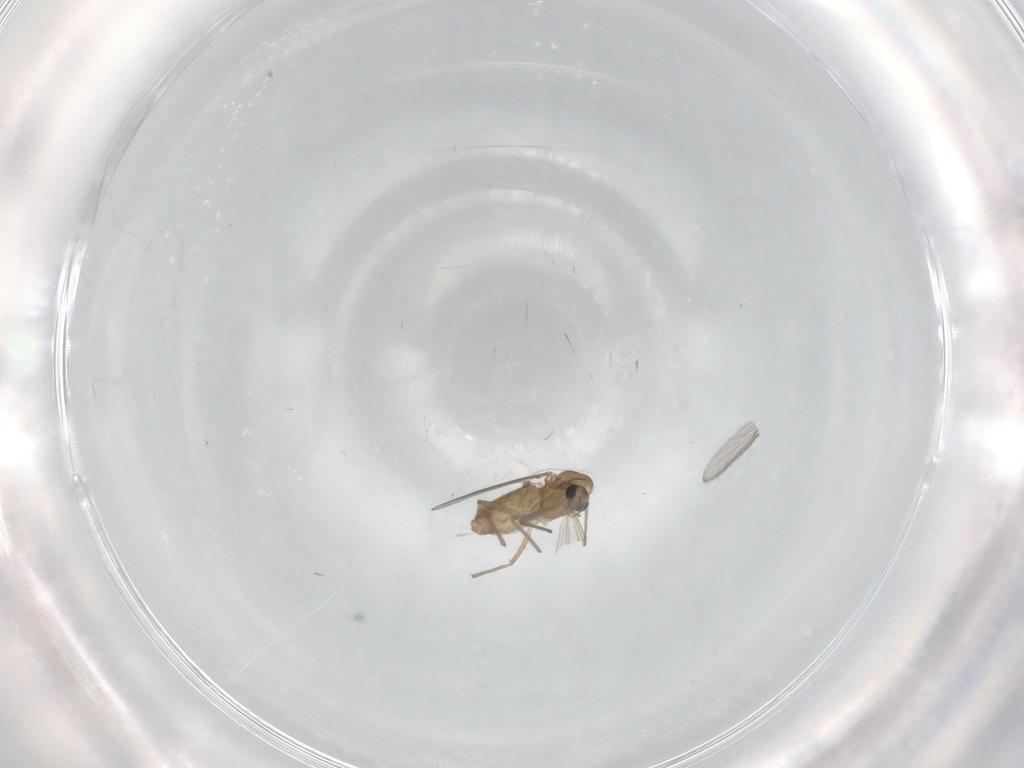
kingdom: Animalia
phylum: Arthropoda
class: Insecta
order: Diptera
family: Chironomidae
